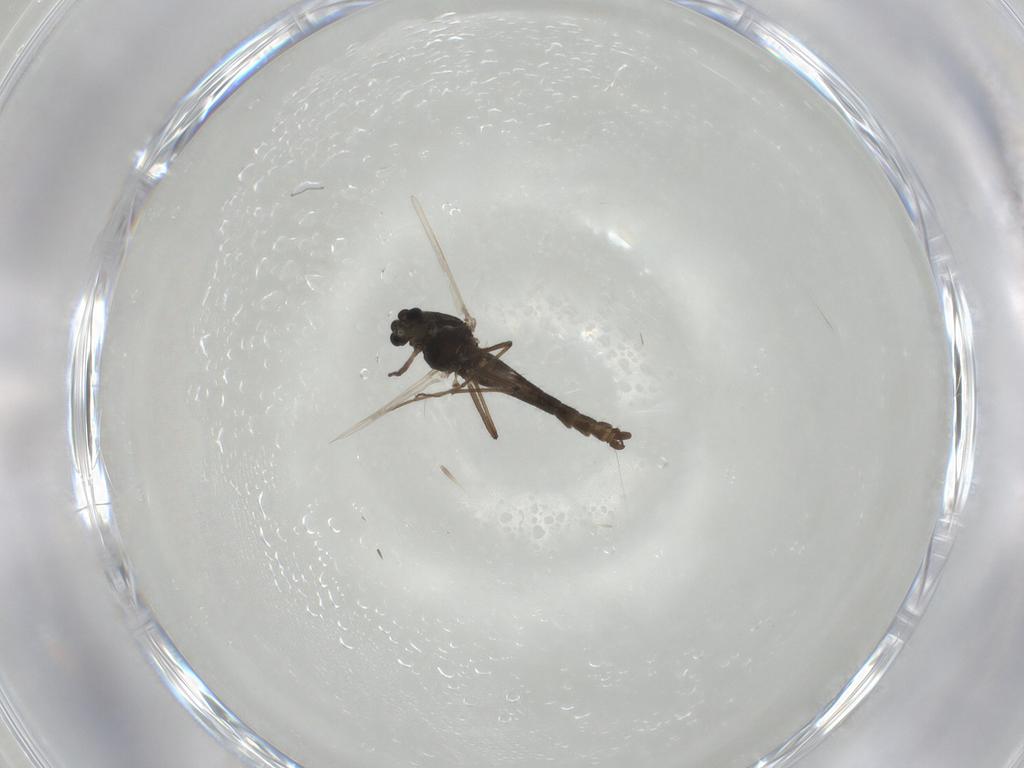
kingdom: Animalia
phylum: Arthropoda
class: Insecta
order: Diptera
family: Chironomidae
